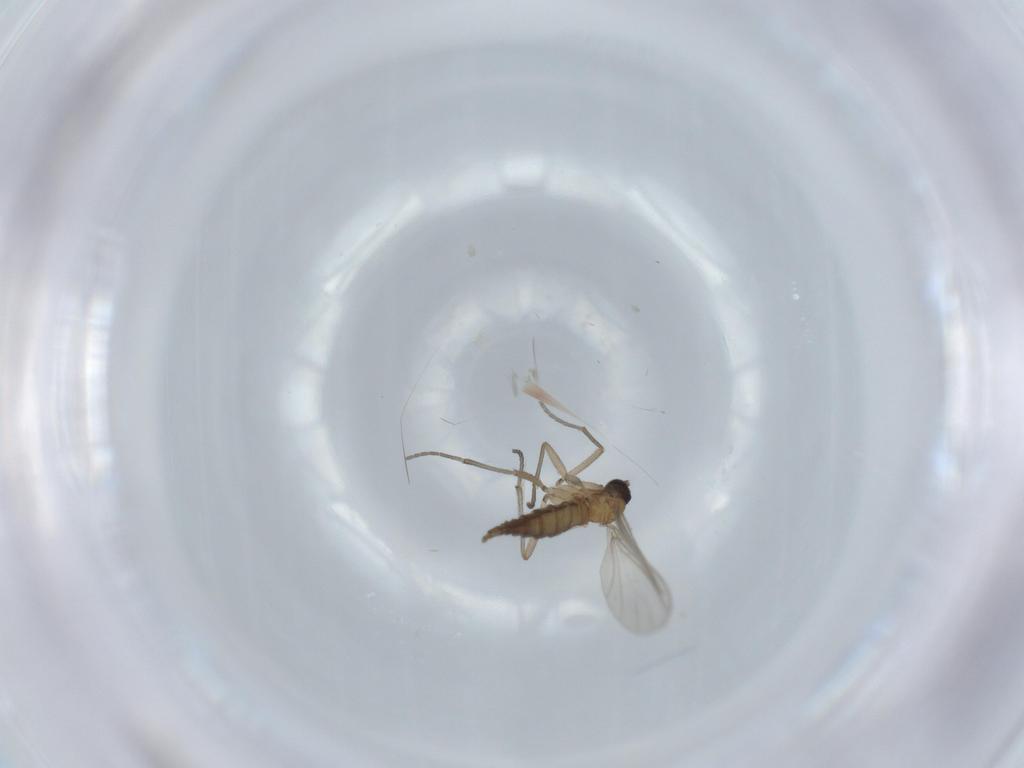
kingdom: Animalia
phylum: Arthropoda
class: Insecta
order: Diptera
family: Sciaridae
